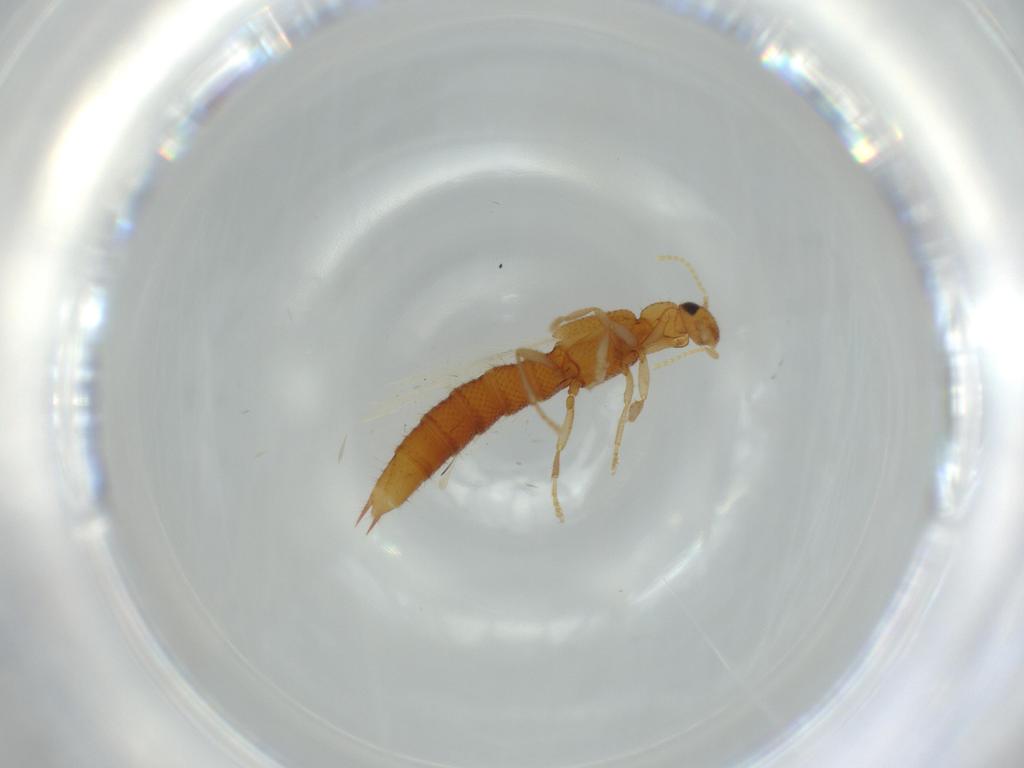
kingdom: Animalia
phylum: Arthropoda
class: Insecta
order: Coleoptera
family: Staphylinidae
